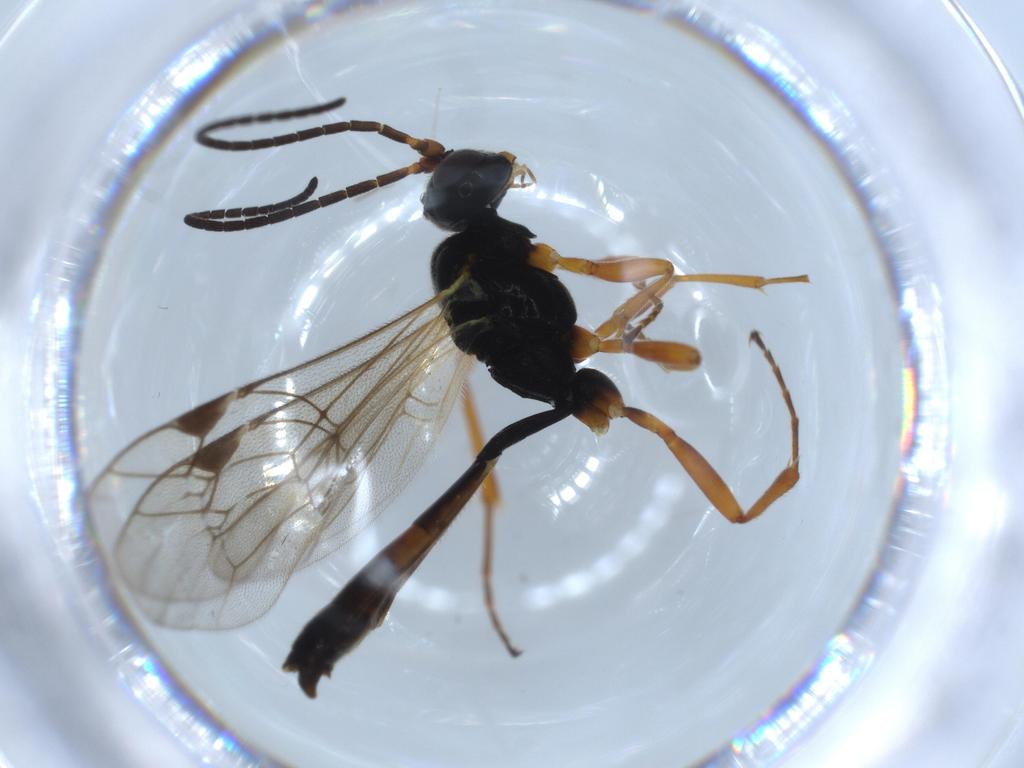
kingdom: Animalia
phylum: Arthropoda
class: Insecta
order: Hymenoptera
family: Ichneumonidae
